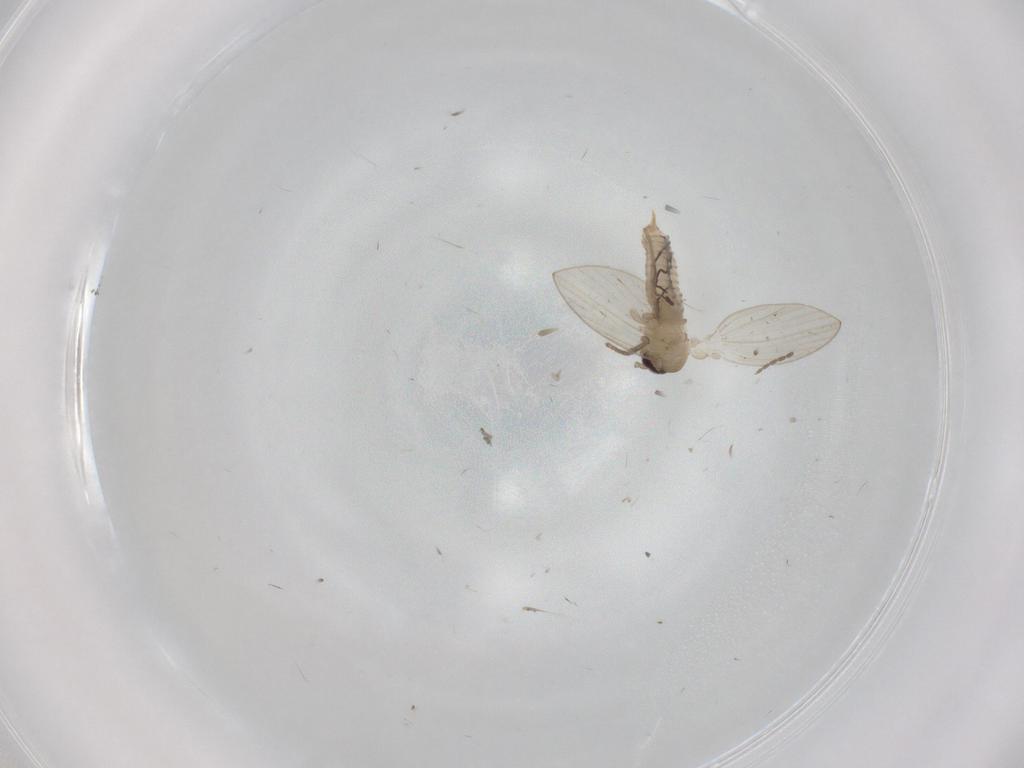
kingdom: Animalia
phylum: Arthropoda
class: Insecta
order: Diptera
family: Psychodidae
